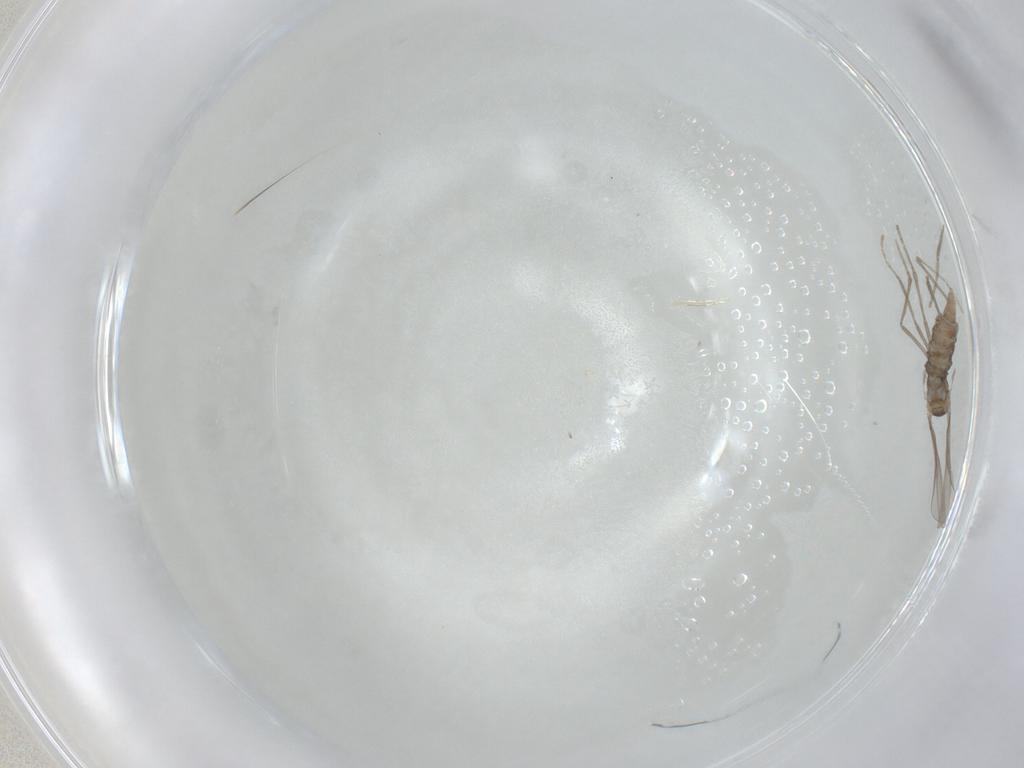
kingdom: Animalia
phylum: Arthropoda
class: Insecta
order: Diptera
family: Cecidomyiidae
